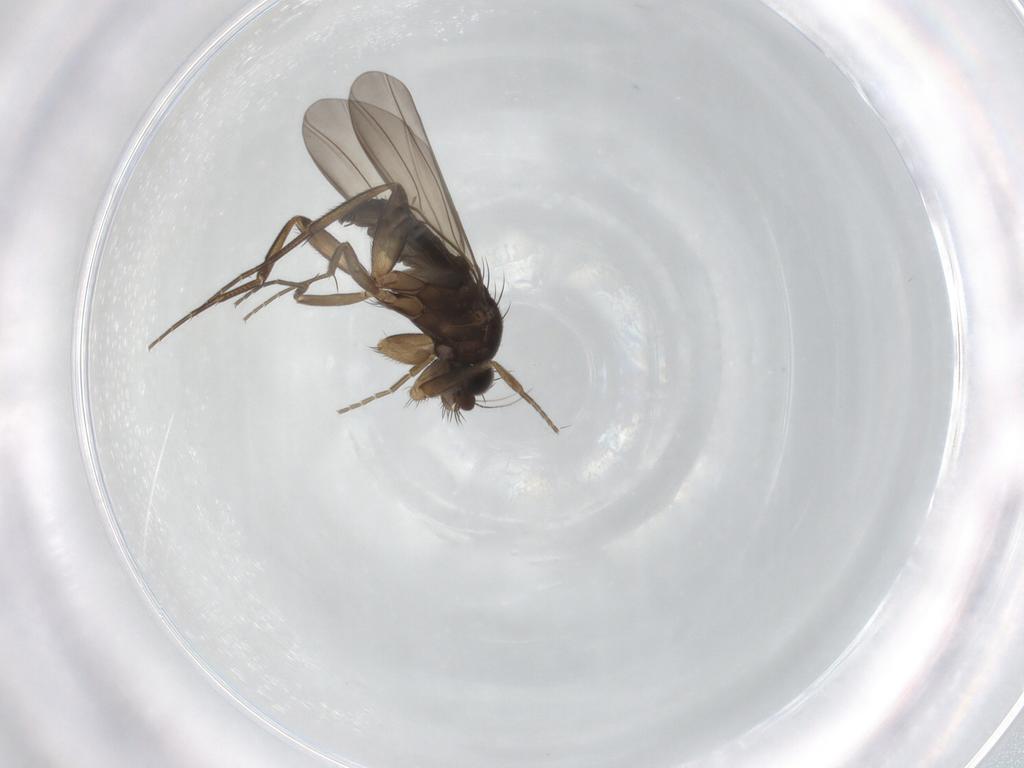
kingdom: Animalia
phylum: Arthropoda
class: Insecta
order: Diptera
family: Phoridae
